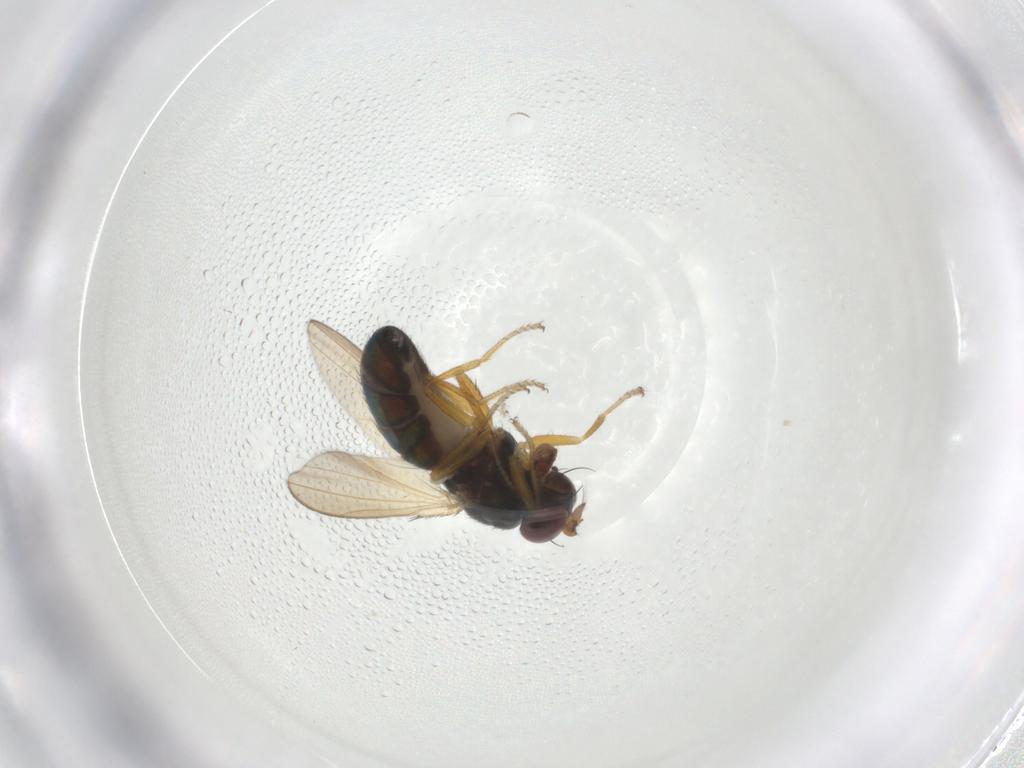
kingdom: Animalia
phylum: Arthropoda
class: Insecta
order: Diptera
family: Ephydridae
